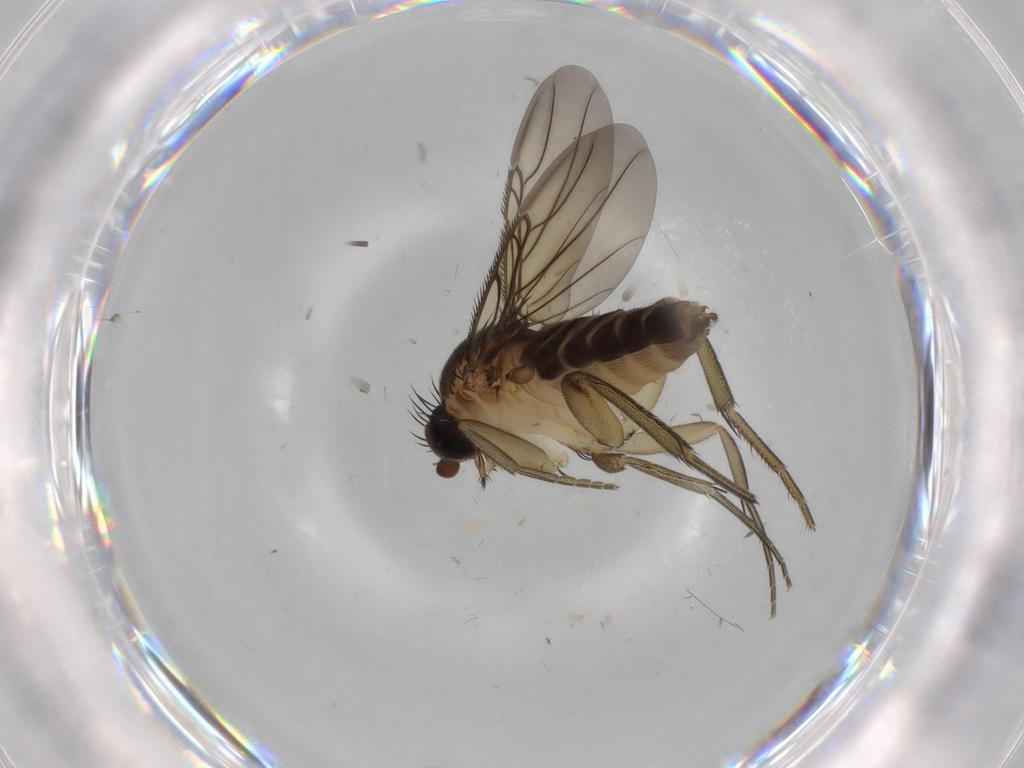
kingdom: Animalia
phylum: Arthropoda
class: Insecta
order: Diptera
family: Phoridae
